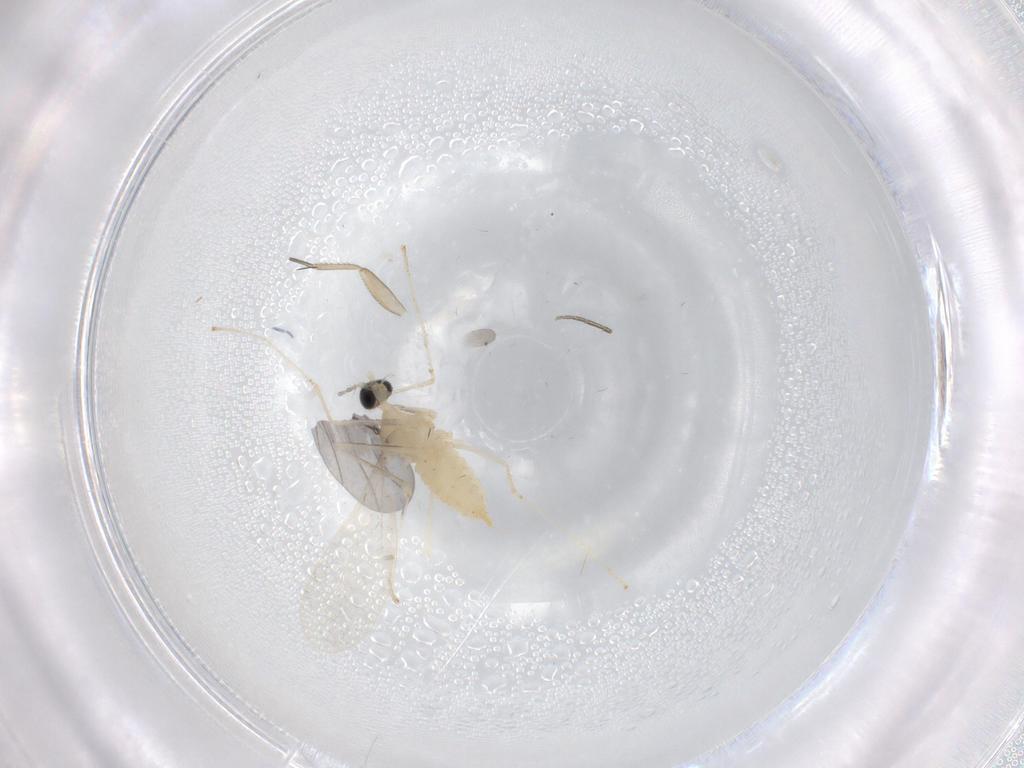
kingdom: Animalia
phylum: Arthropoda
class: Insecta
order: Diptera
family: Cecidomyiidae
